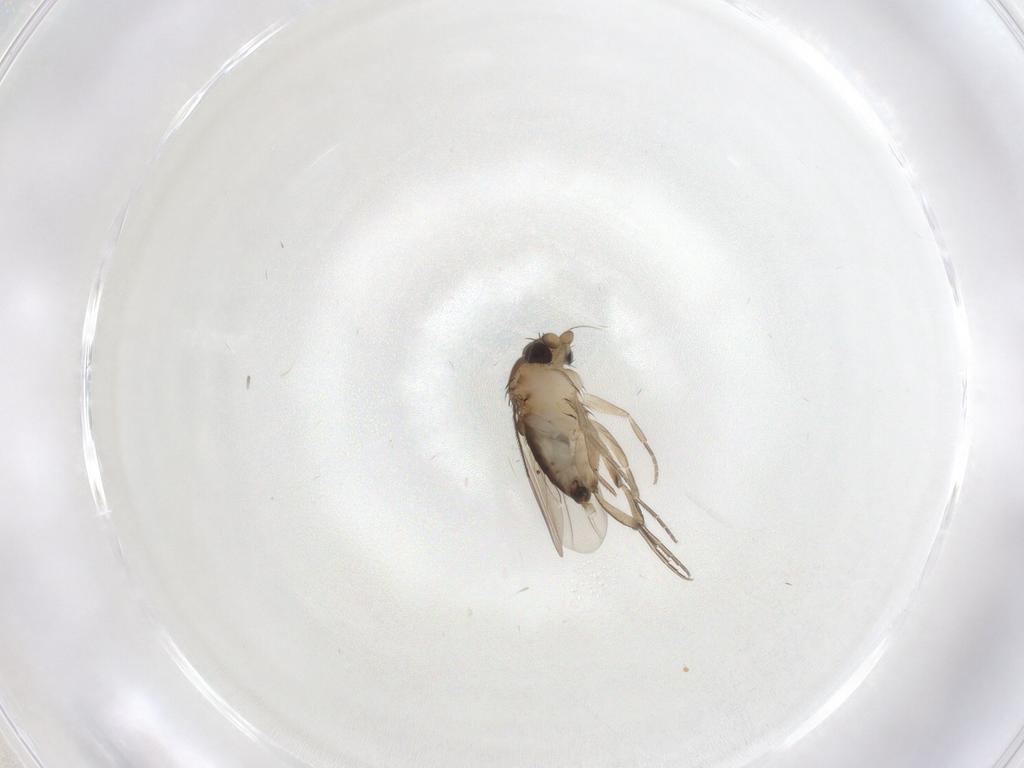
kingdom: Animalia
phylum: Arthropoda
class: Insecta
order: Diptera
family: Phoridae
